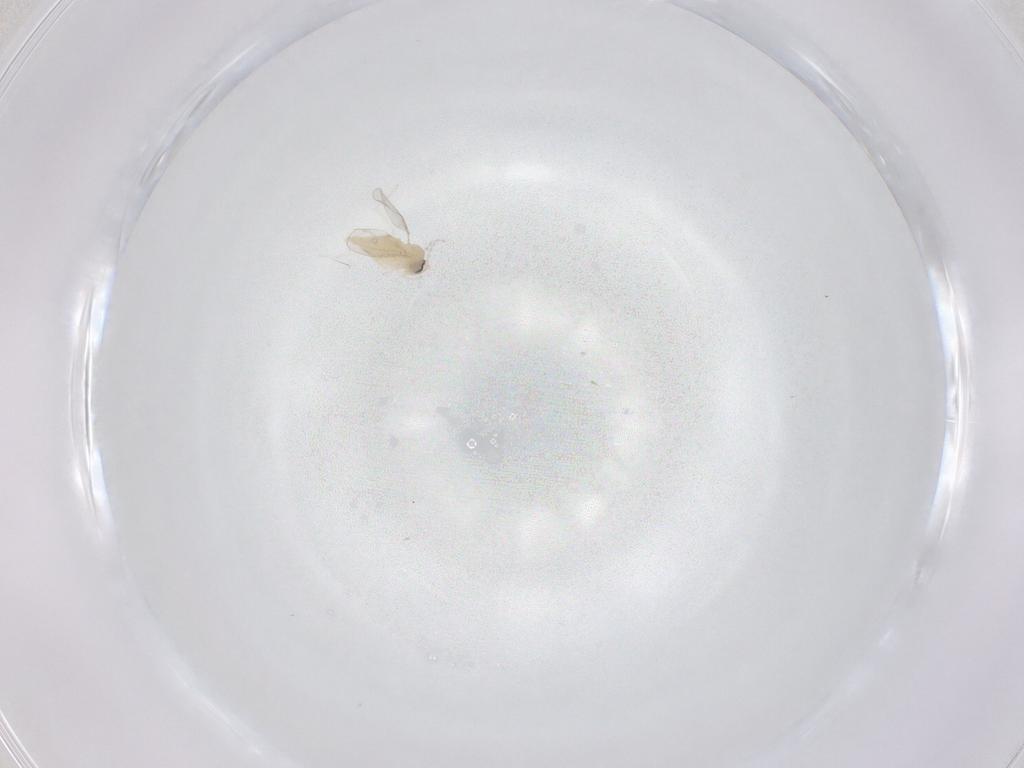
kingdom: Animalia
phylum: Arthropoda
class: Insecta
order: Diptera
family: Cecidomyiidae
